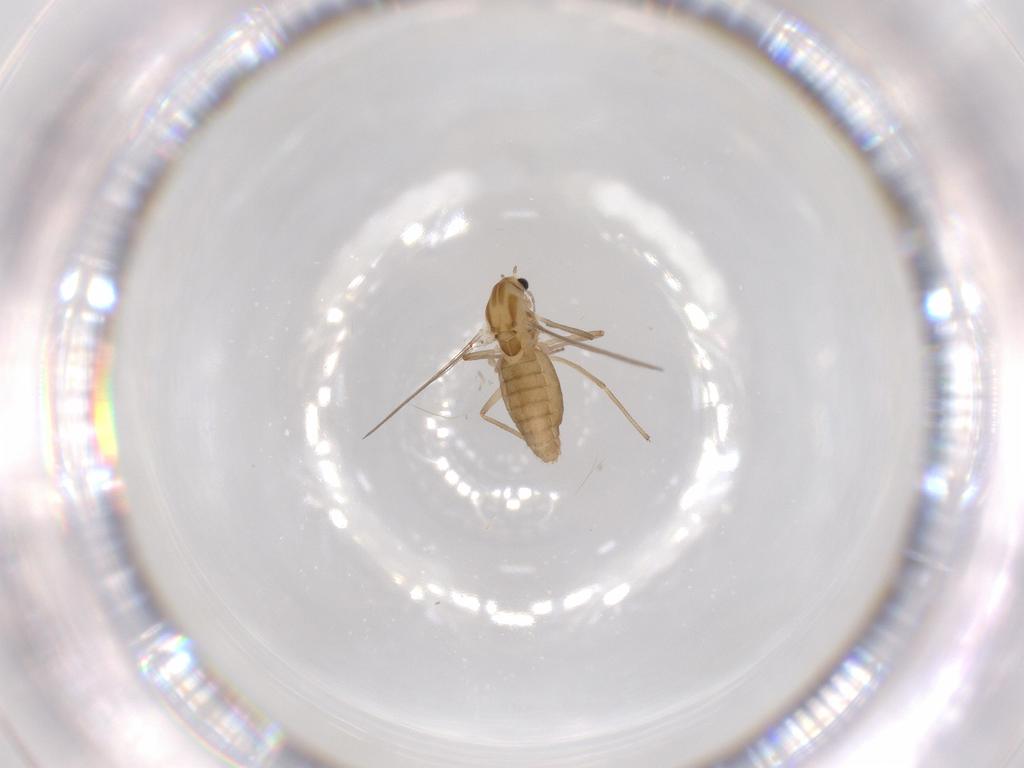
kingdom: Animalia
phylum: Arthropoda
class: Insecta
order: Diptera
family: Chironomidae
